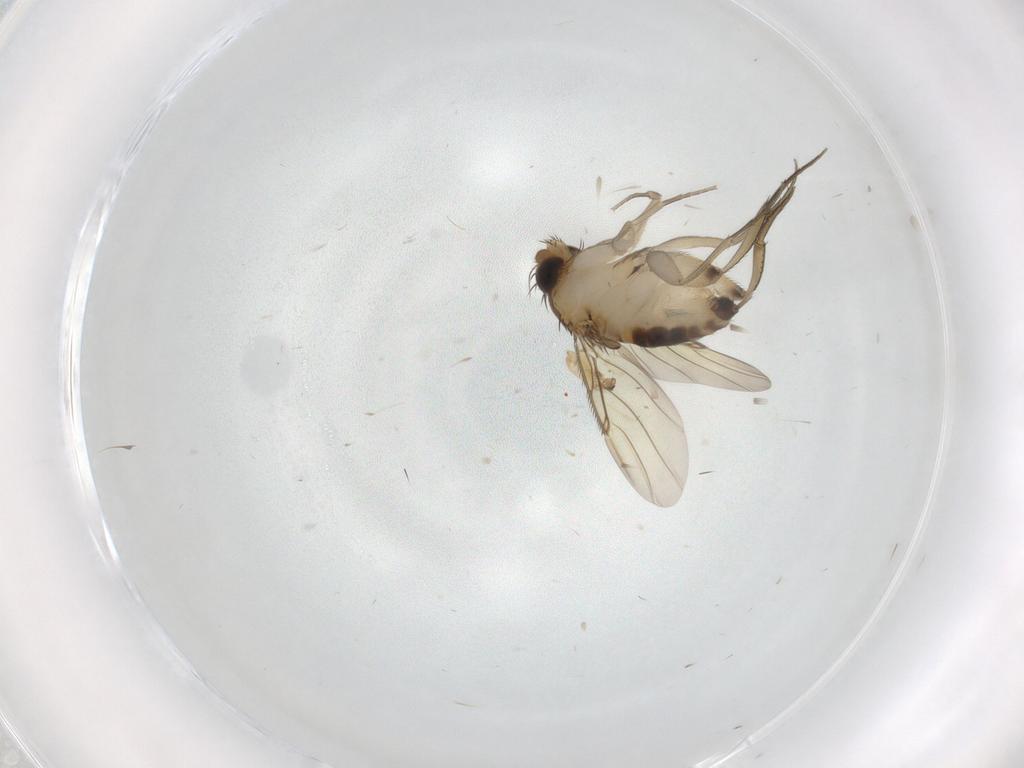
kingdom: Animalia
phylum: Arthropoda
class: Insecta
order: Diptera
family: Phoridae
